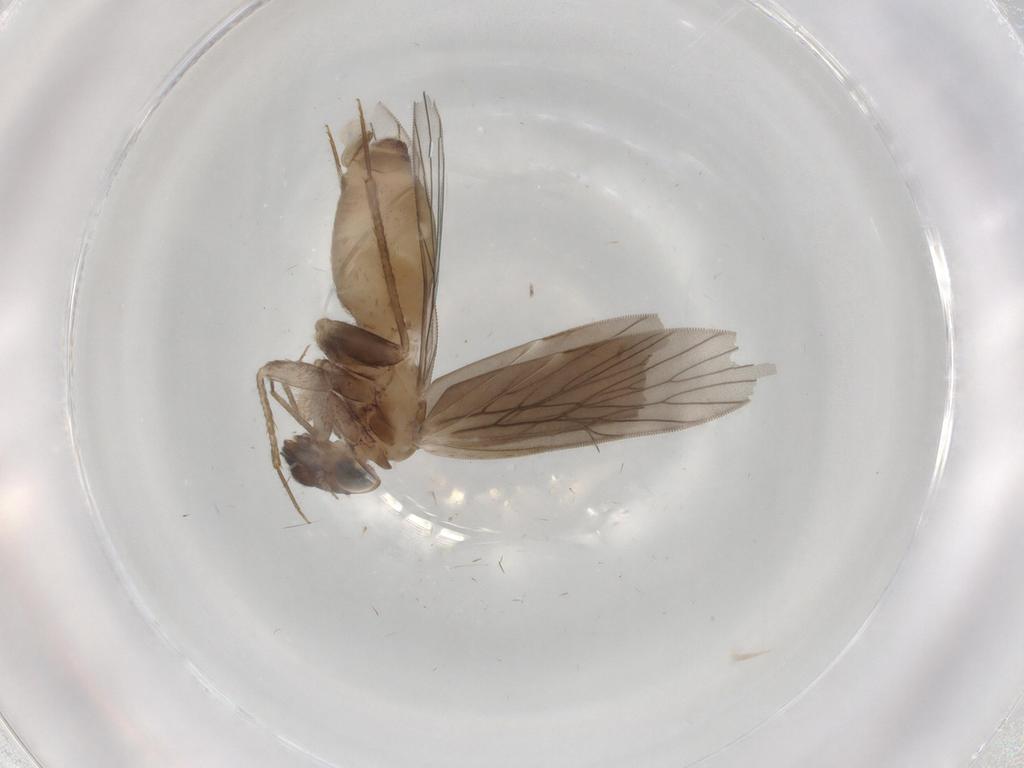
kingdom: Animalia
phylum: Arthropoda
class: Insecta
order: Psocodea
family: Lepidopsocidae
